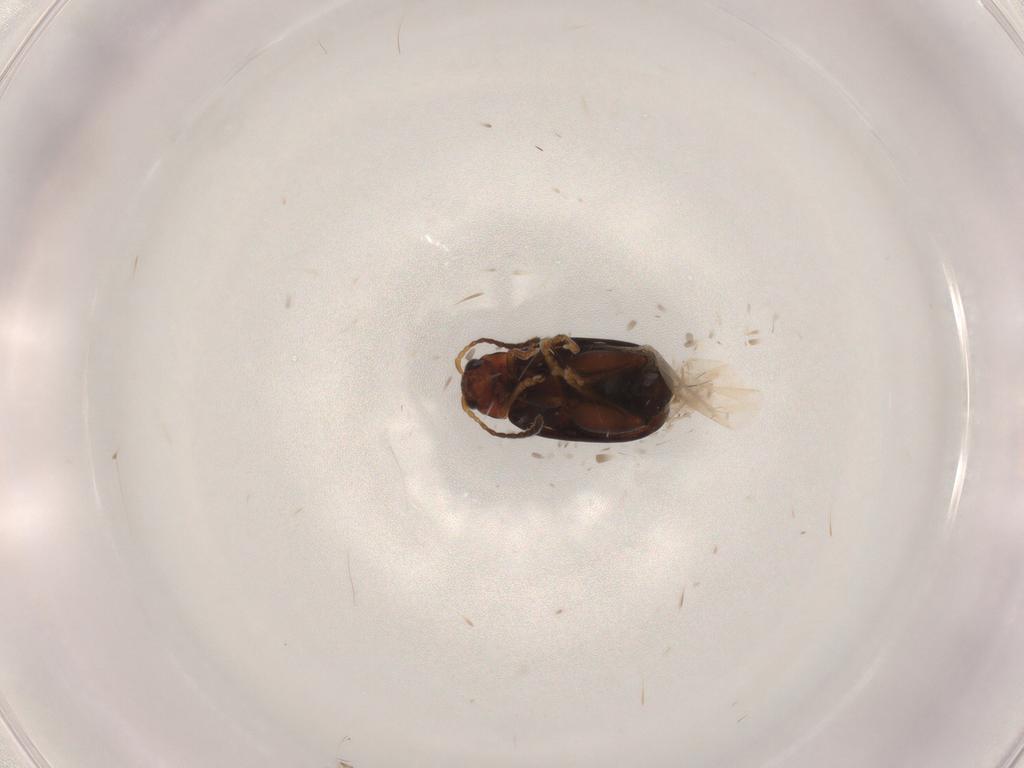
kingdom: Animalia
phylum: Arthropoda
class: Insecta
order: Coleoptera
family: Chrysomelidae
